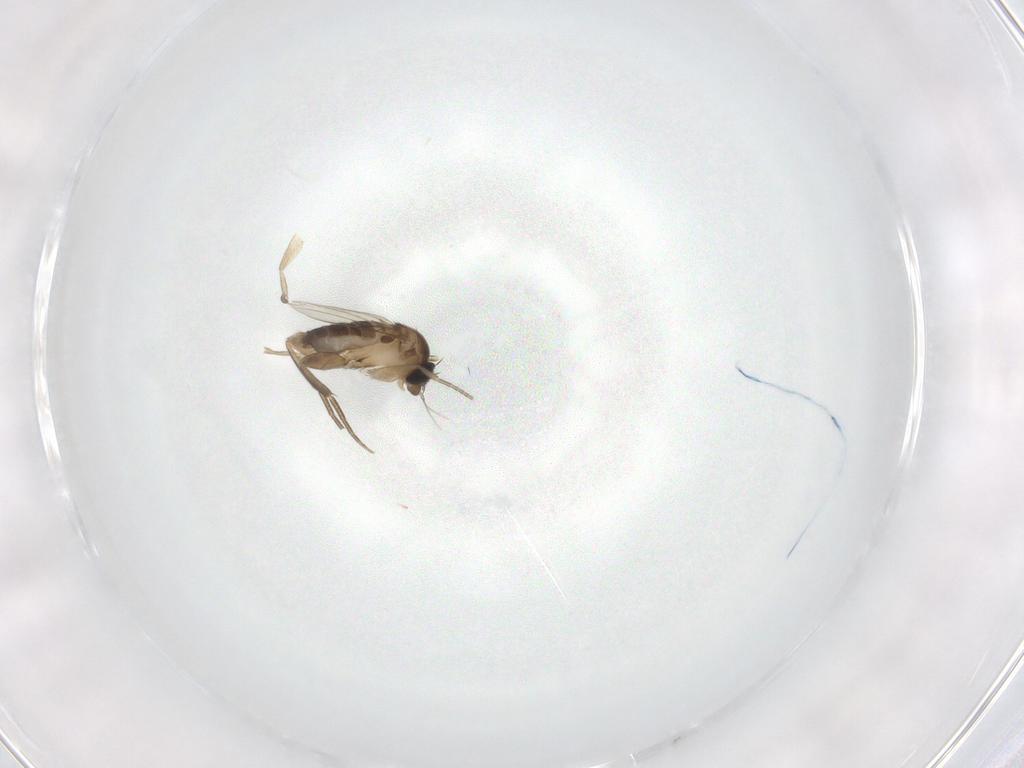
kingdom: Animalia
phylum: Arthropoda
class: Insecta
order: Diptera
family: Phoridae
